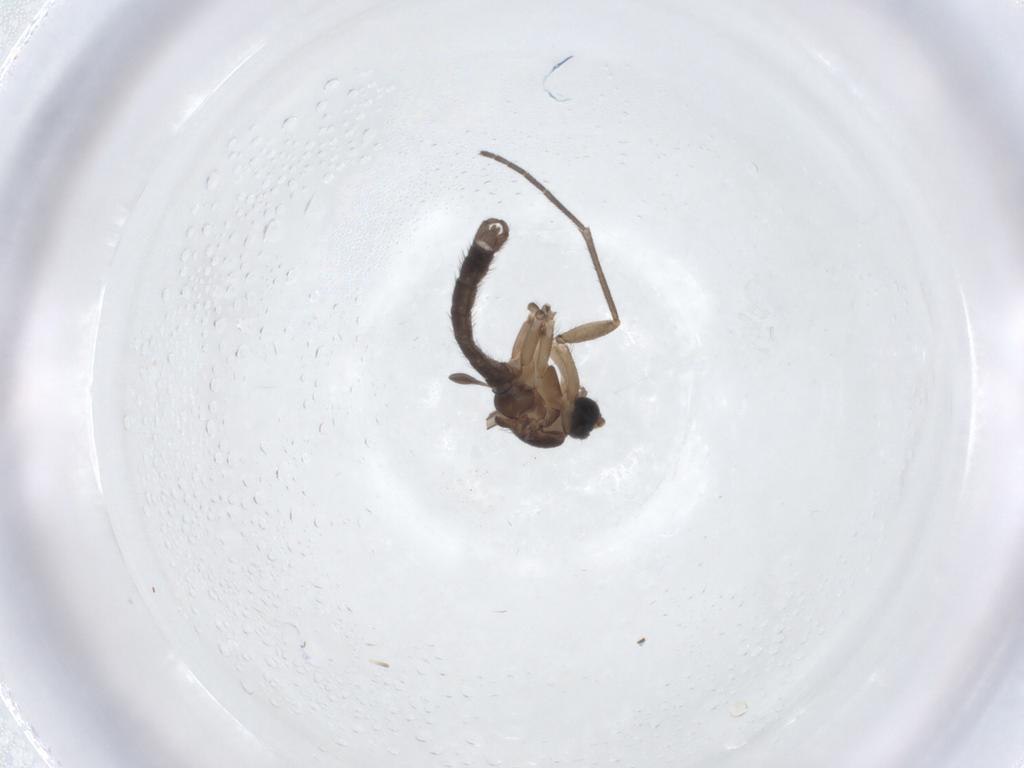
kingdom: Animalia
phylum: Arthropoda
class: Insecta
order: Diptera
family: Sciaridae
